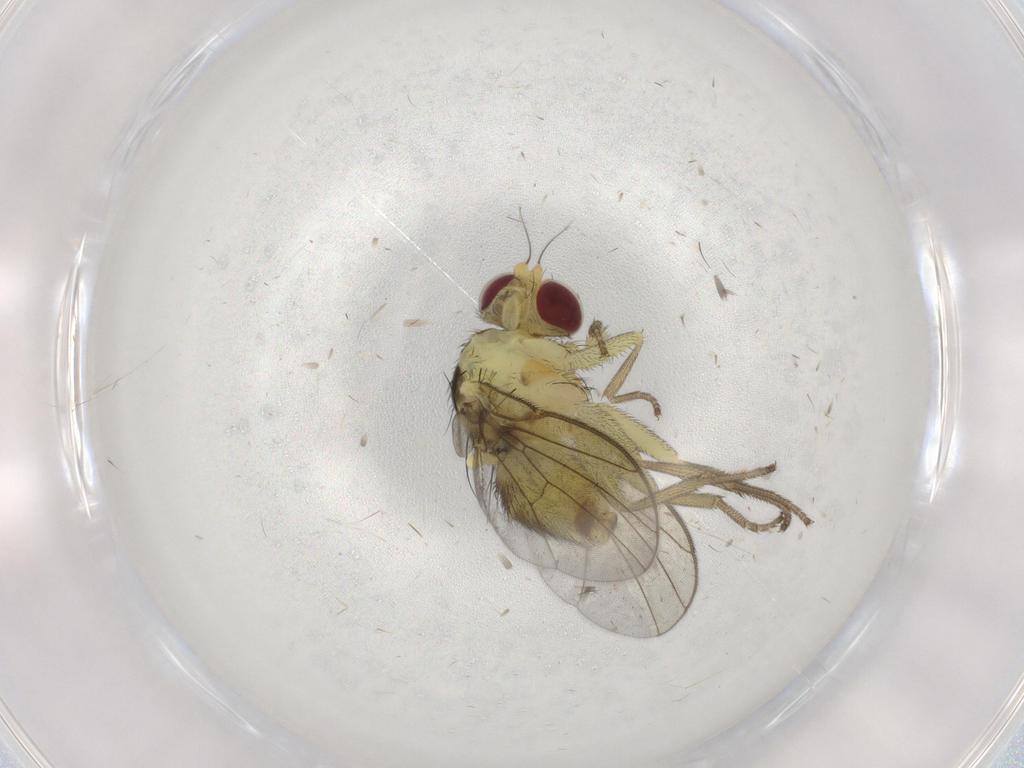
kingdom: Animalia
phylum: Arthropoda
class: Insecta
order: Diptera
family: Agromyzidae
